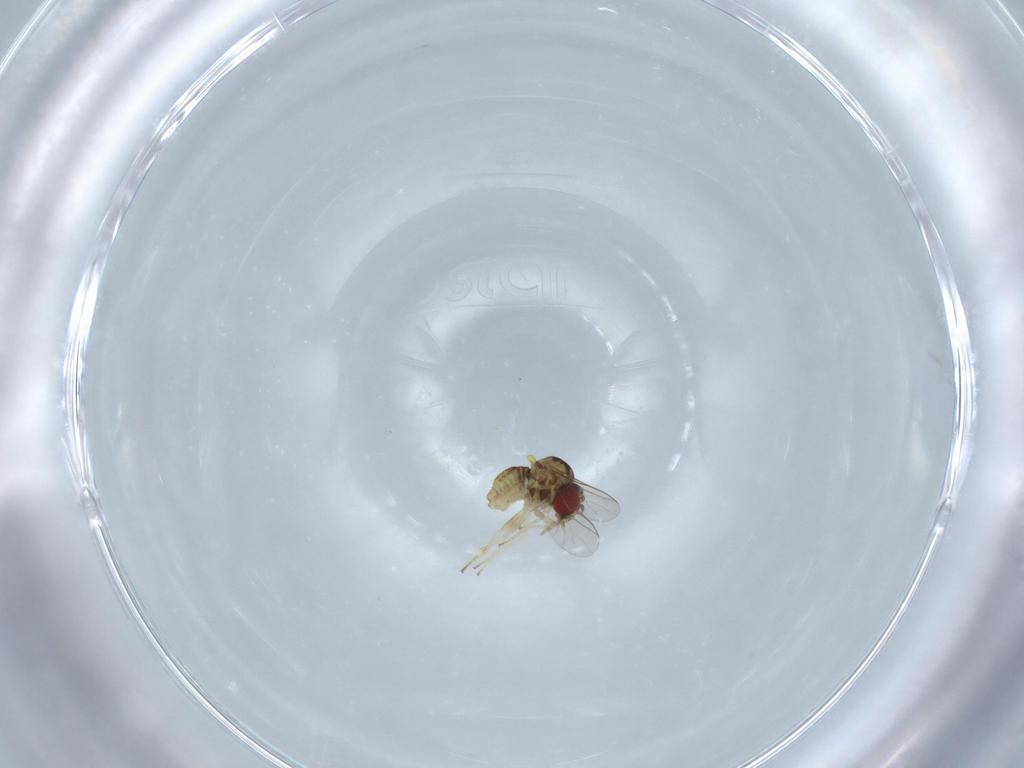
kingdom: Animalia
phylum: Arthropoda
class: Insecta
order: Diptera
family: Bombyliidae
